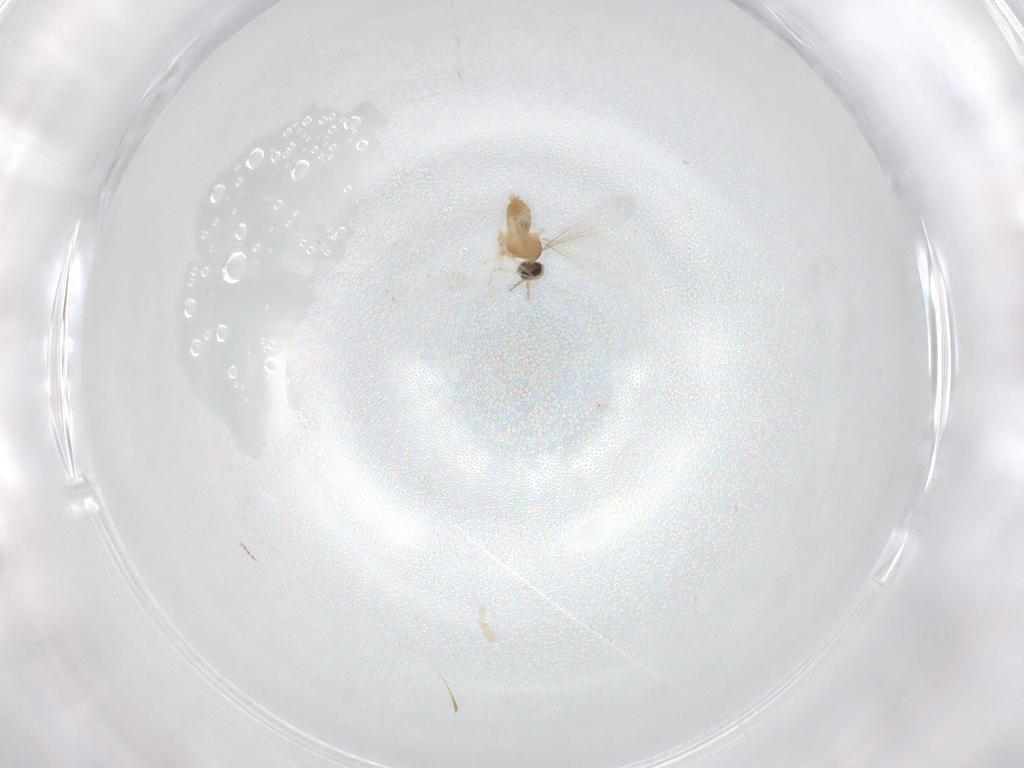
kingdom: Animalia
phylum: Arthropoda
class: Insecta
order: Diptera
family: Cecidomyiidae
